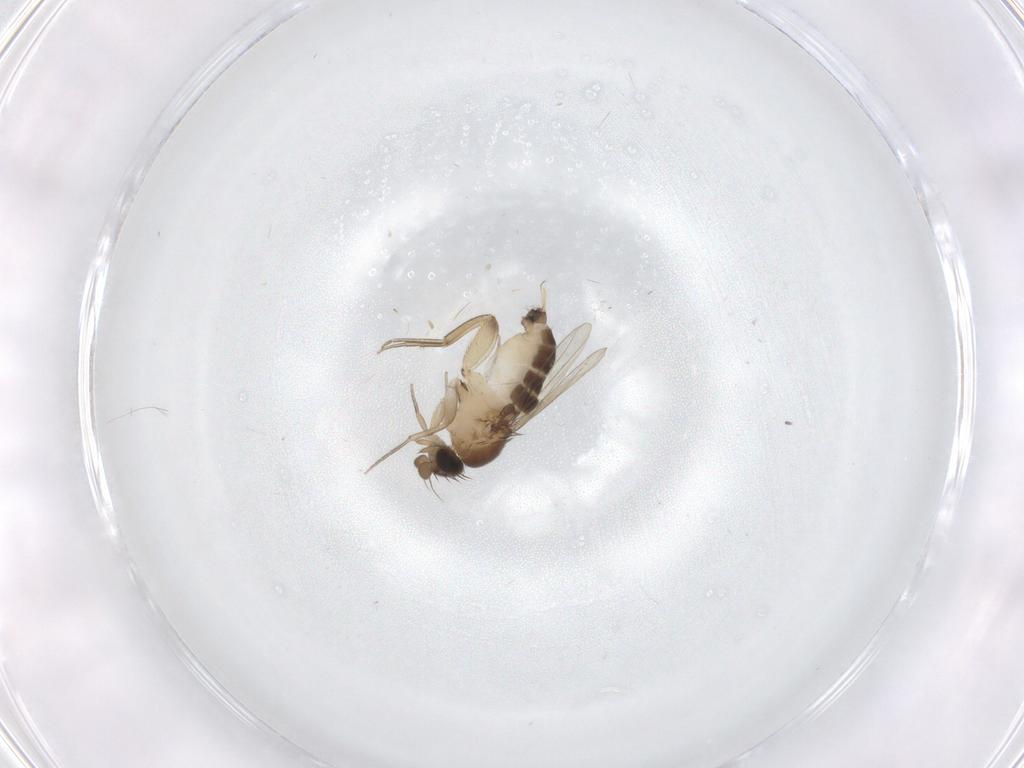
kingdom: Animalia
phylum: Arthropoda
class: Insecta
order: Diptera
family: Phoridae
